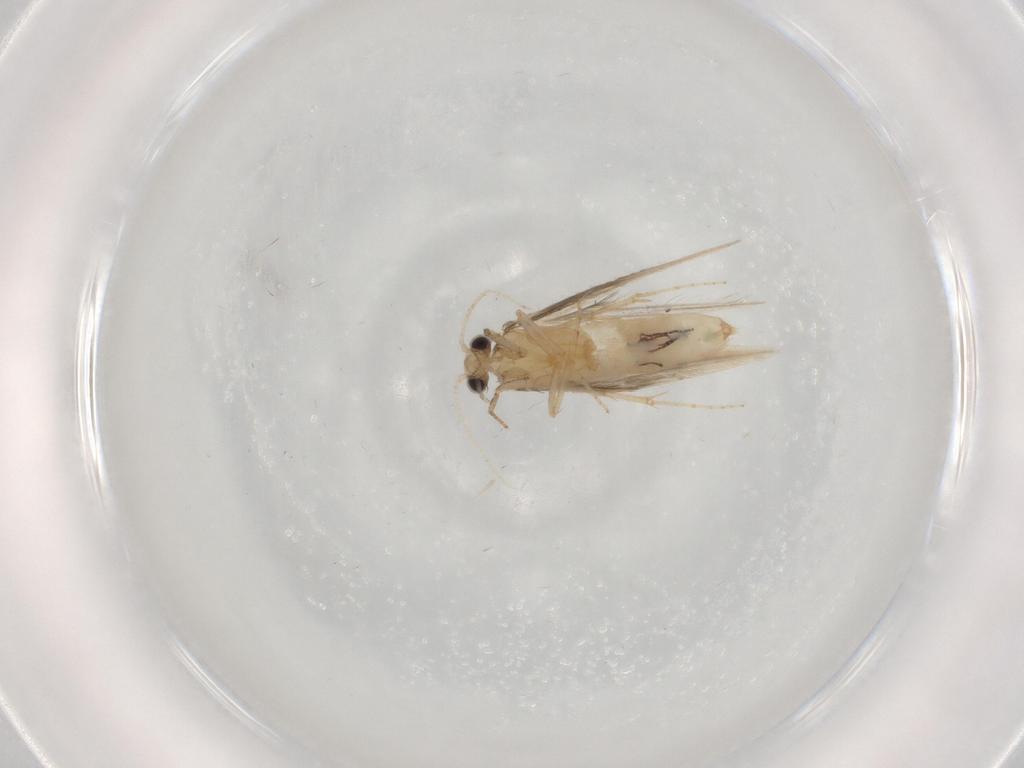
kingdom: Animalia
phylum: Arthropoda
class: Insecta
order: Trichoptera
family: Hydroptilidae
